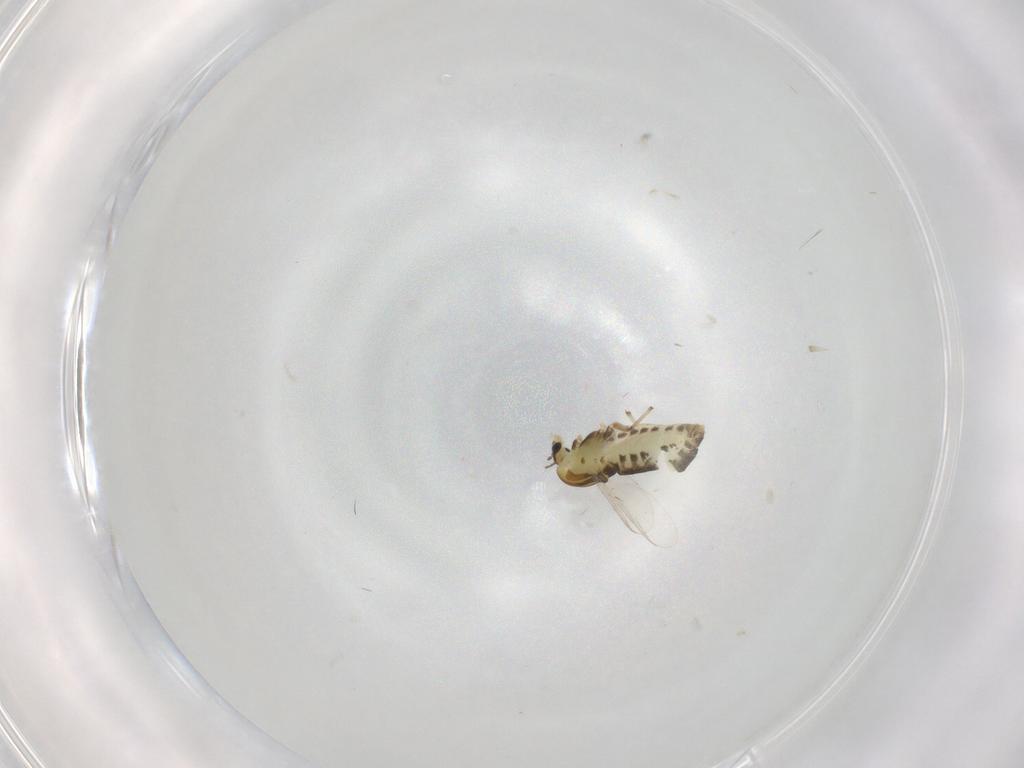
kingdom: Animalia
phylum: Arthropoda
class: Insecta
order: Diptera
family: Chironomidae
